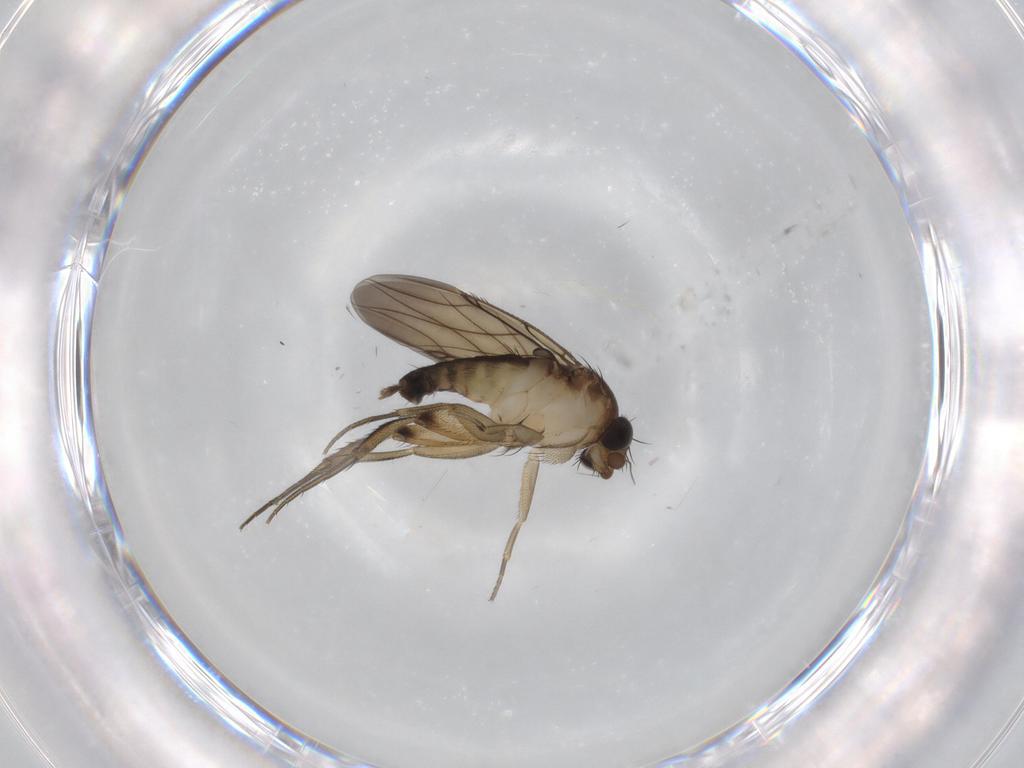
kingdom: Animalia
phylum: Arthropoda
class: Insecta
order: Diptera
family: Phoridae
